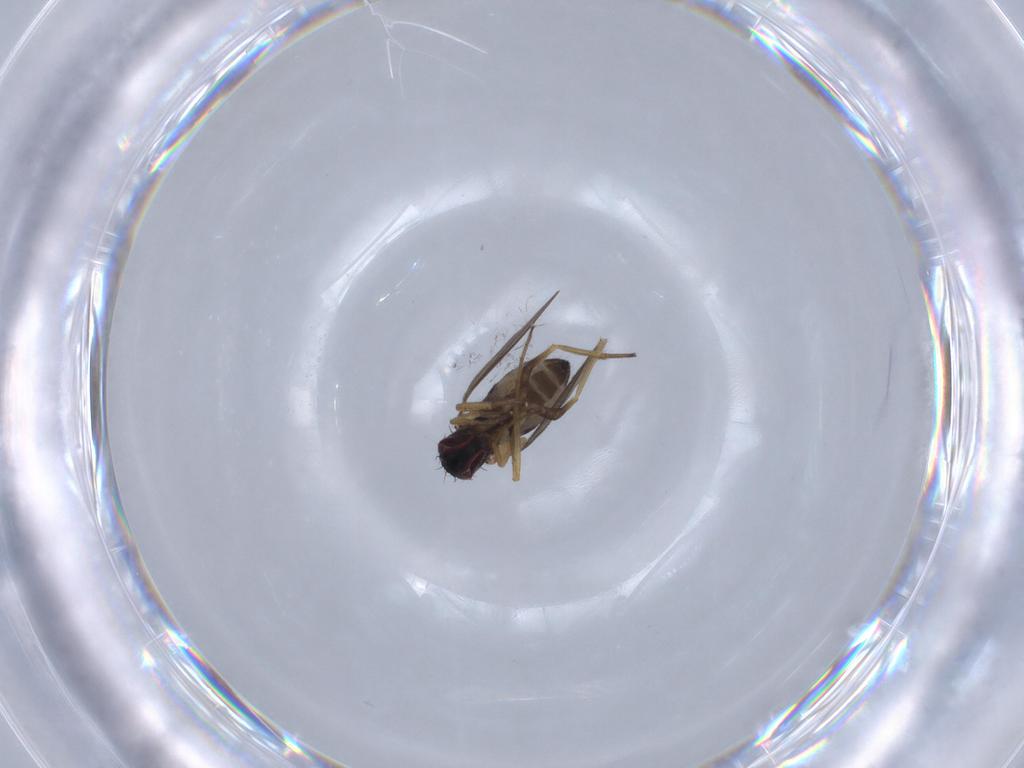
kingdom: Animalia
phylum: Arthropoda
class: Insecta
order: Diptera
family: Dolichopodidae
